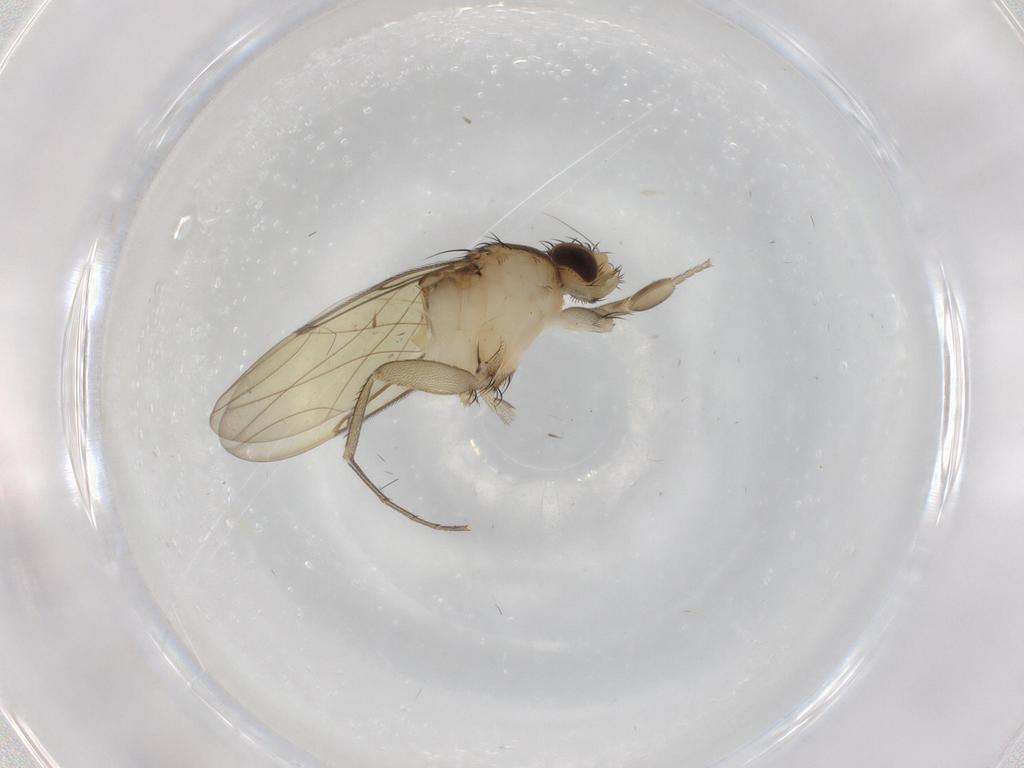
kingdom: Animalia
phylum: Arthropoda
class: Insecta
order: Diptera
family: Phoridae
